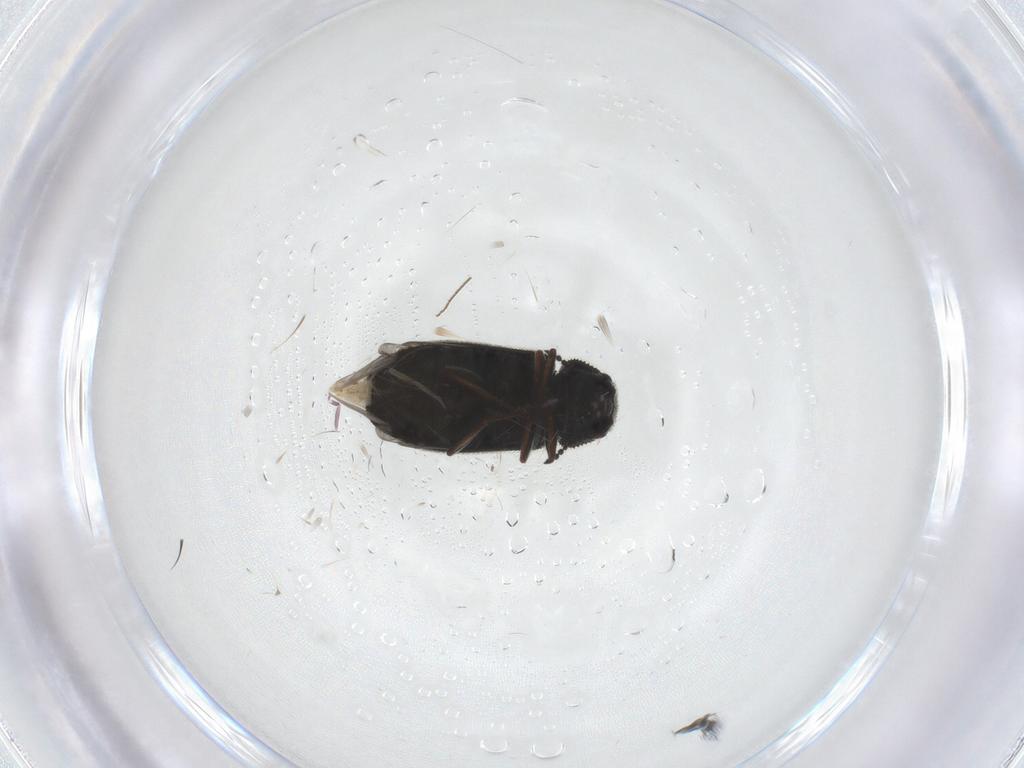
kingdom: Animalia
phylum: Arthropoda
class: Insecta
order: Coleoptera
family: Melyridae
